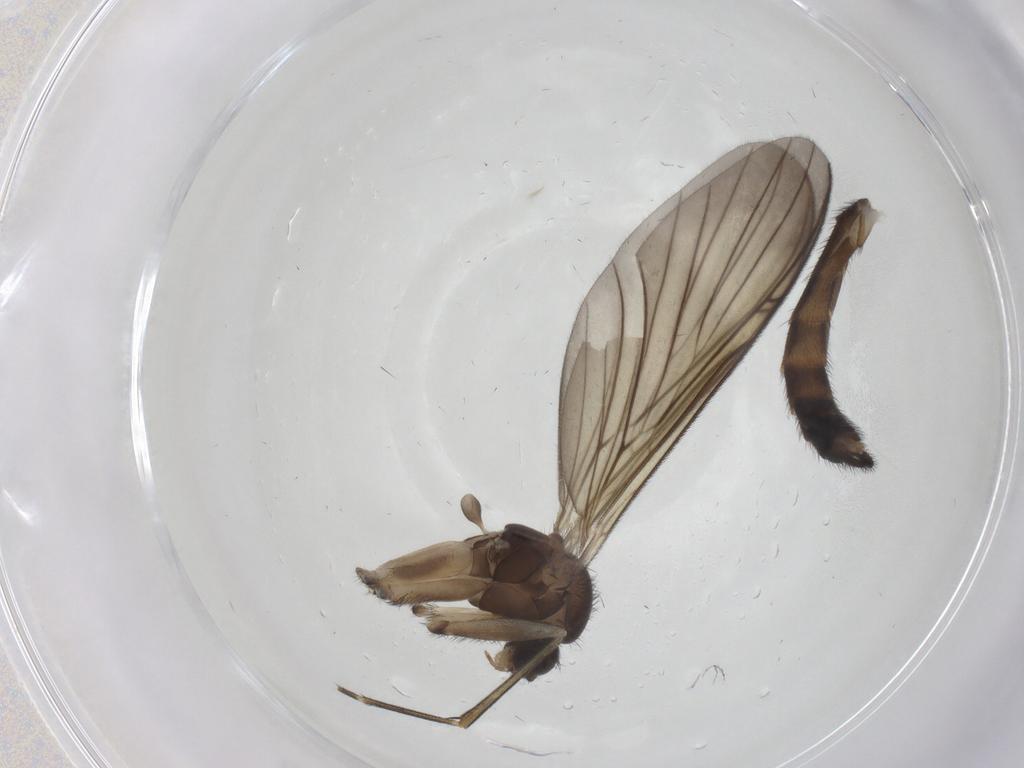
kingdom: Animalia
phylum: Arthropoda
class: Insecta
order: Diptera
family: Keroplatidae
